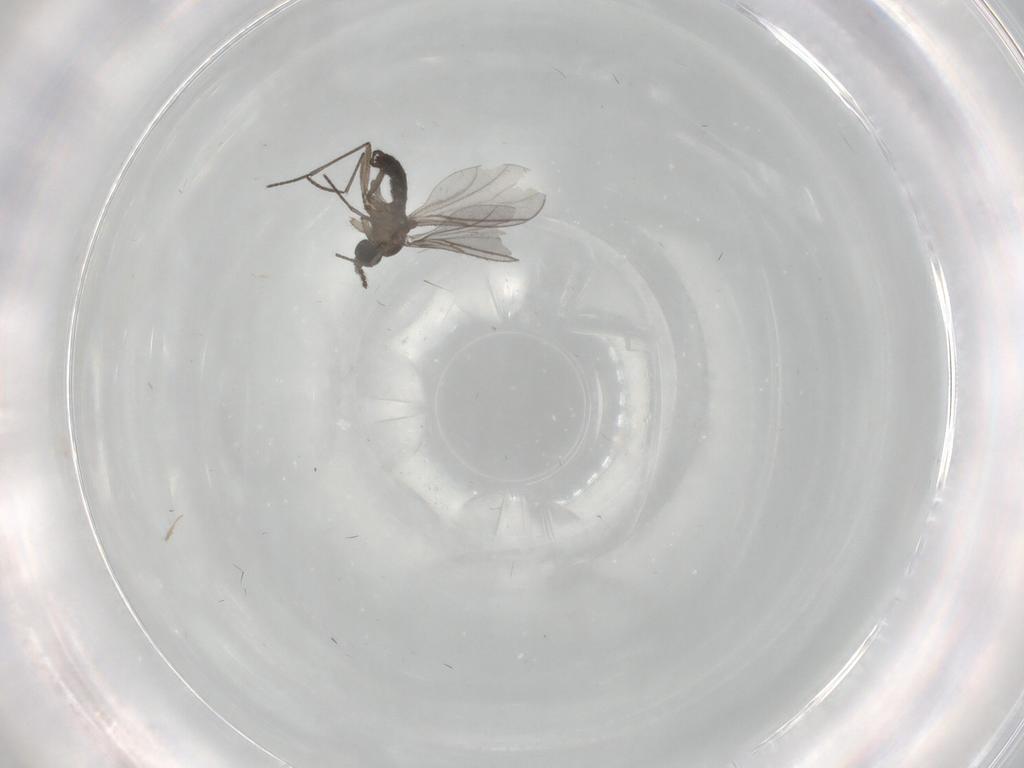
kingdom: Animalia
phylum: Arthropoda
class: Insecta
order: Diptera
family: Sciaridae
